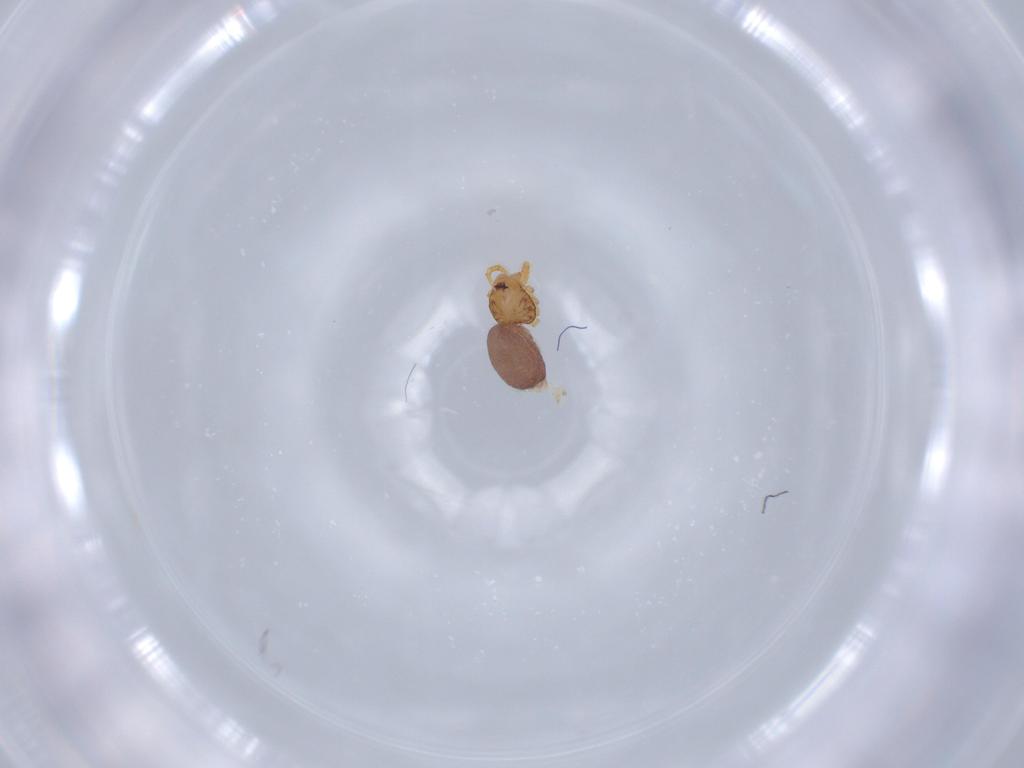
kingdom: Animalia
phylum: Arthropoda
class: Arachnida
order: Araneae
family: Ochyroceratidae
